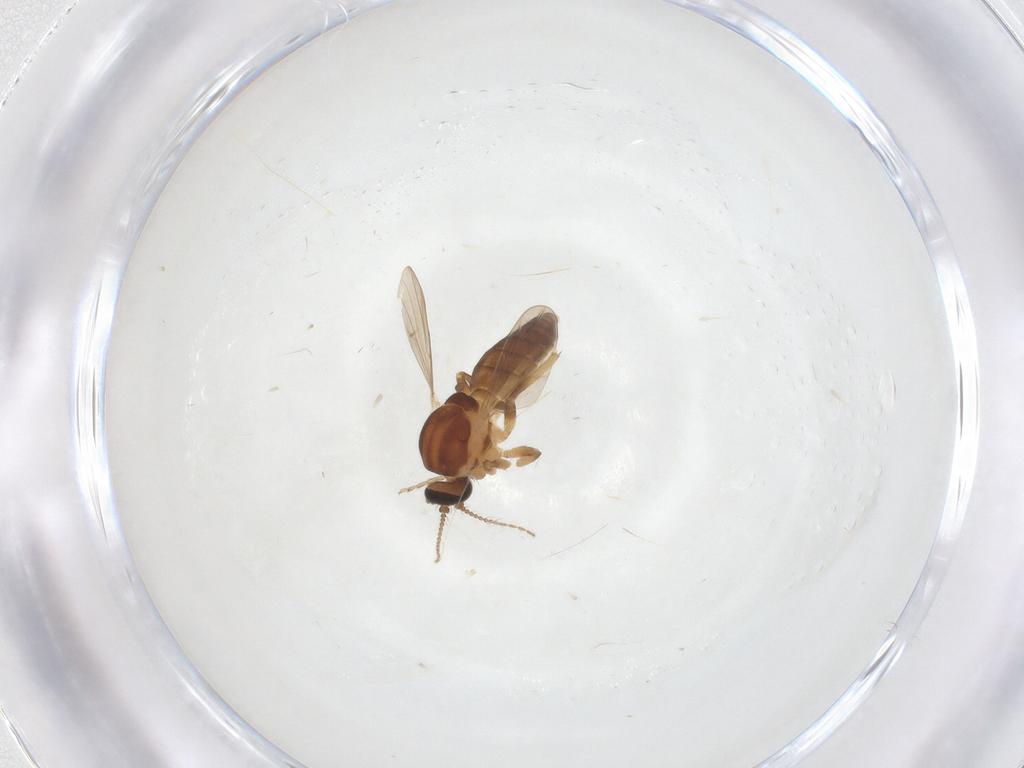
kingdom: Animalia
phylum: Arthropoda
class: Insecta
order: Diptera
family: Ceratopogonidae
